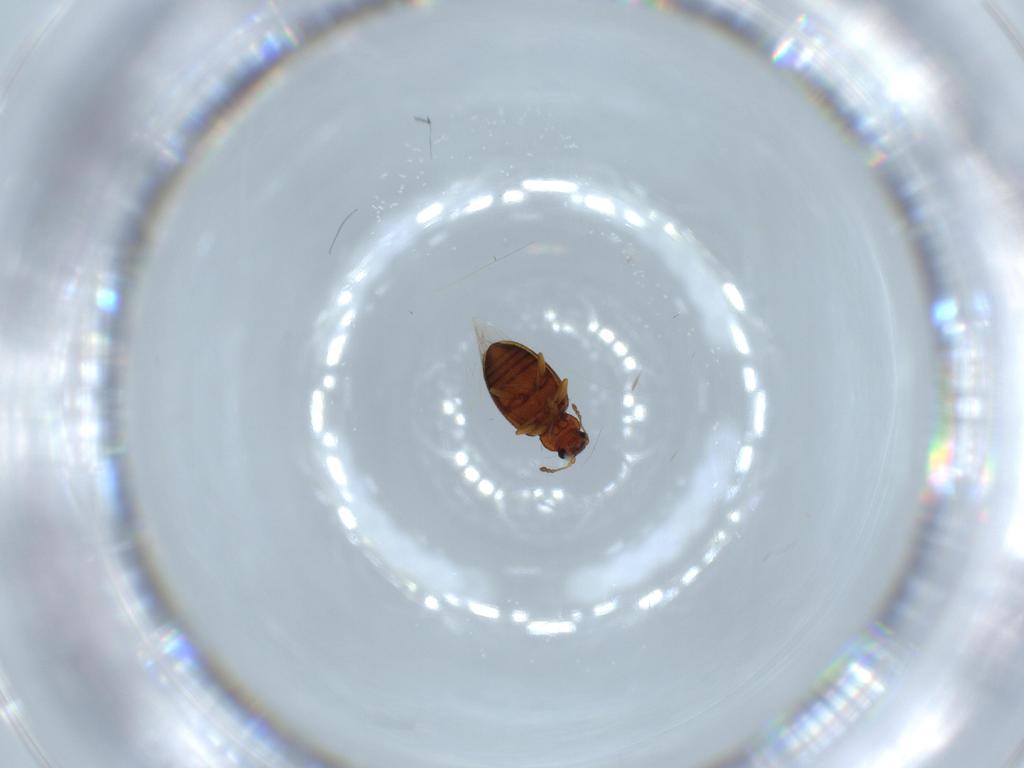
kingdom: Animalia
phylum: Arthropoda
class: Insecta
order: Coleoptera
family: Latridiidae
